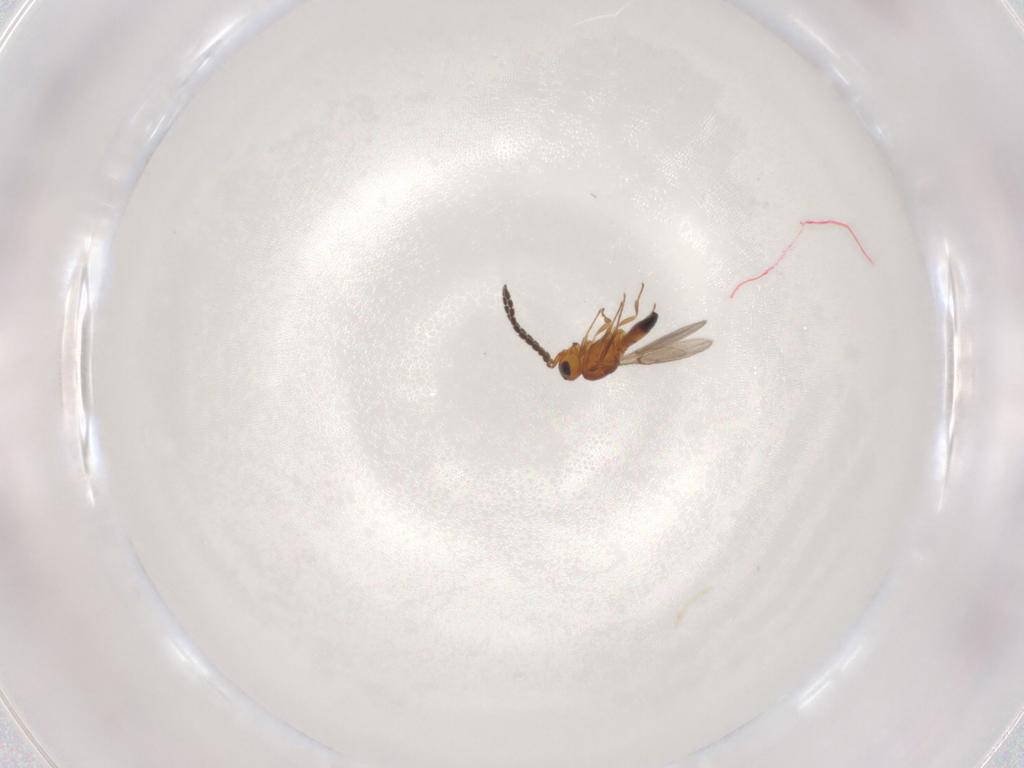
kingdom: Animalia
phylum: Arthropoda
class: Insecta
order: Hymenoptera
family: Scelionidae
